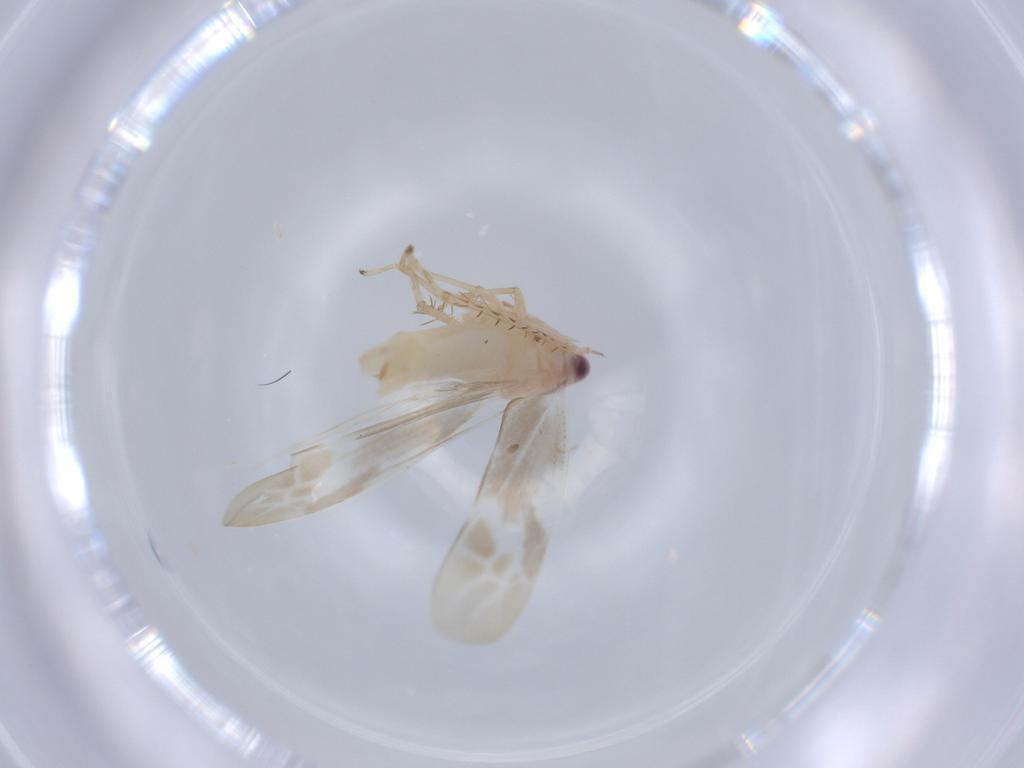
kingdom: Animalia
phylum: Arthropoda
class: Insecta
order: Hemiptera
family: Cicadellidae
